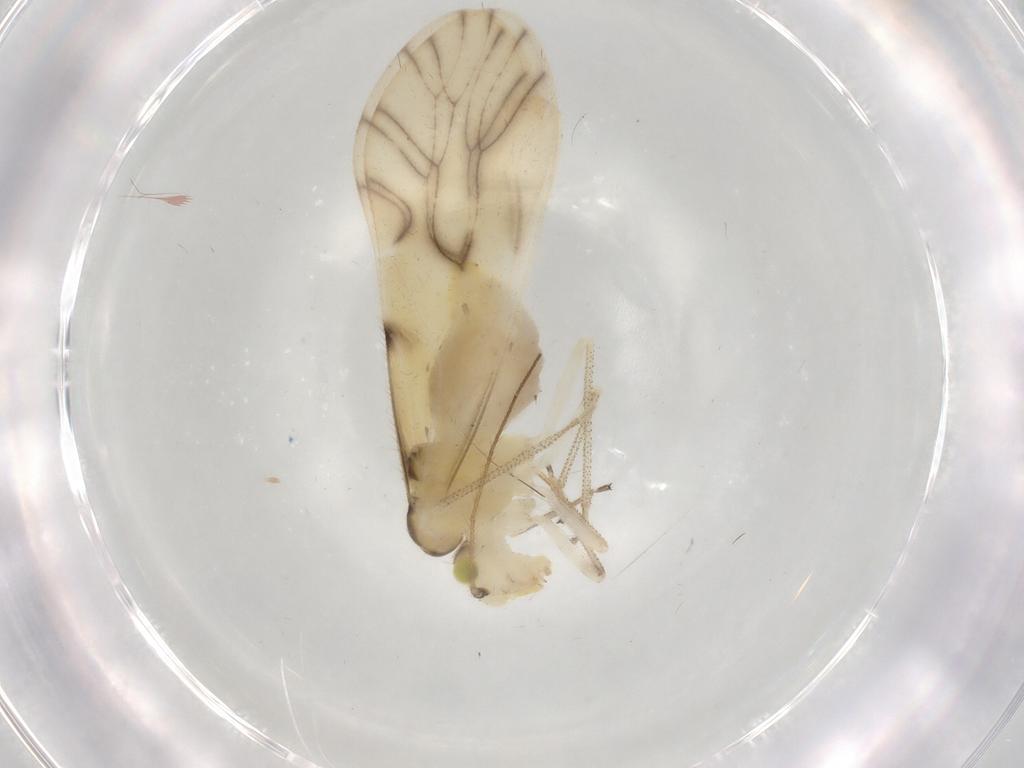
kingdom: Animalia
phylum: Arthropoda
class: Insecta
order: Psocodea
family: Caeciliusidae
